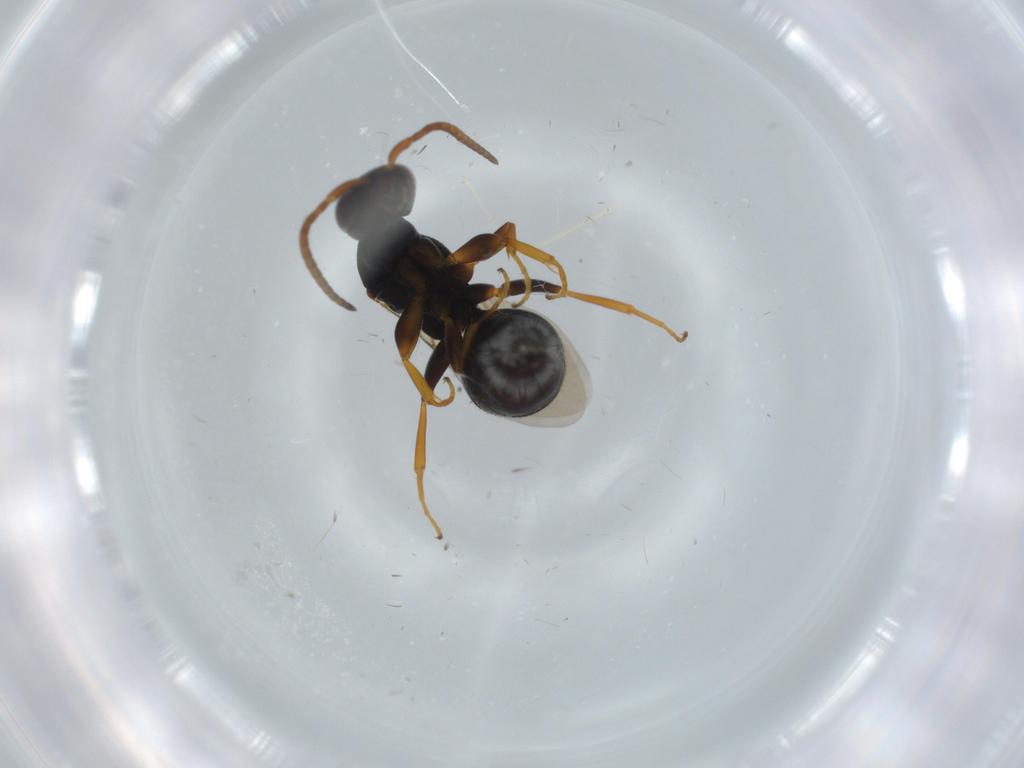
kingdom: Animalia
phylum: Arthropoda
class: Insecta
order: Hymenoptera
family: Bethylidae
